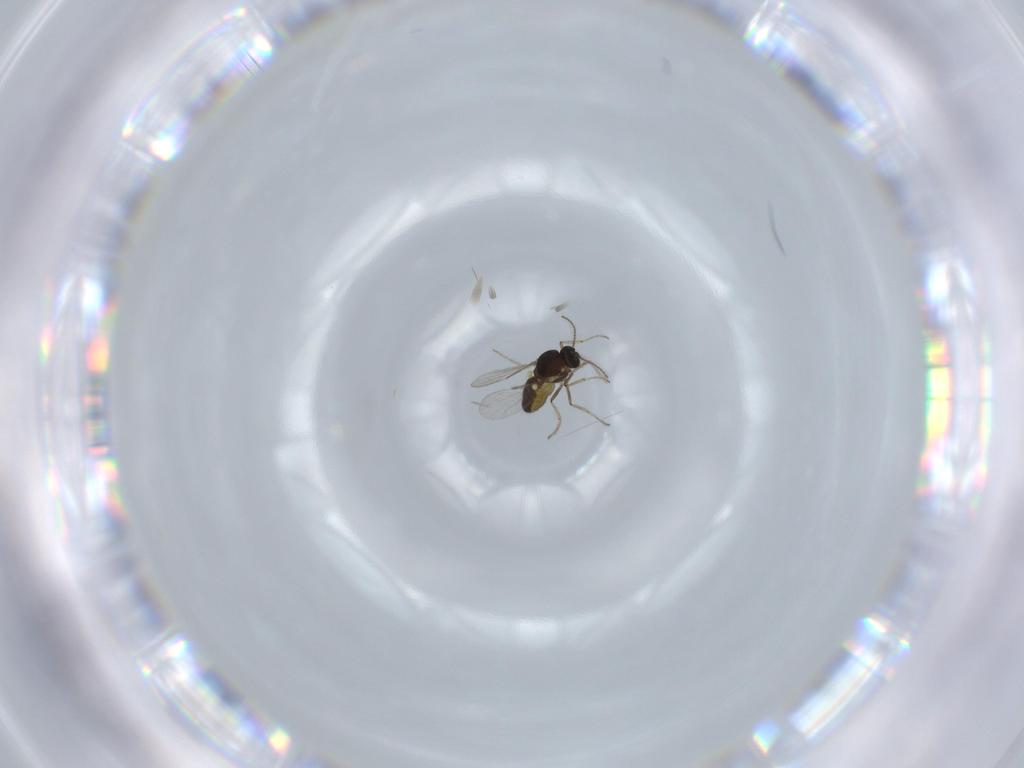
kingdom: Animalia
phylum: Arthropoda
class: Insecta
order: Diptera
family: Ceratopogonidae
